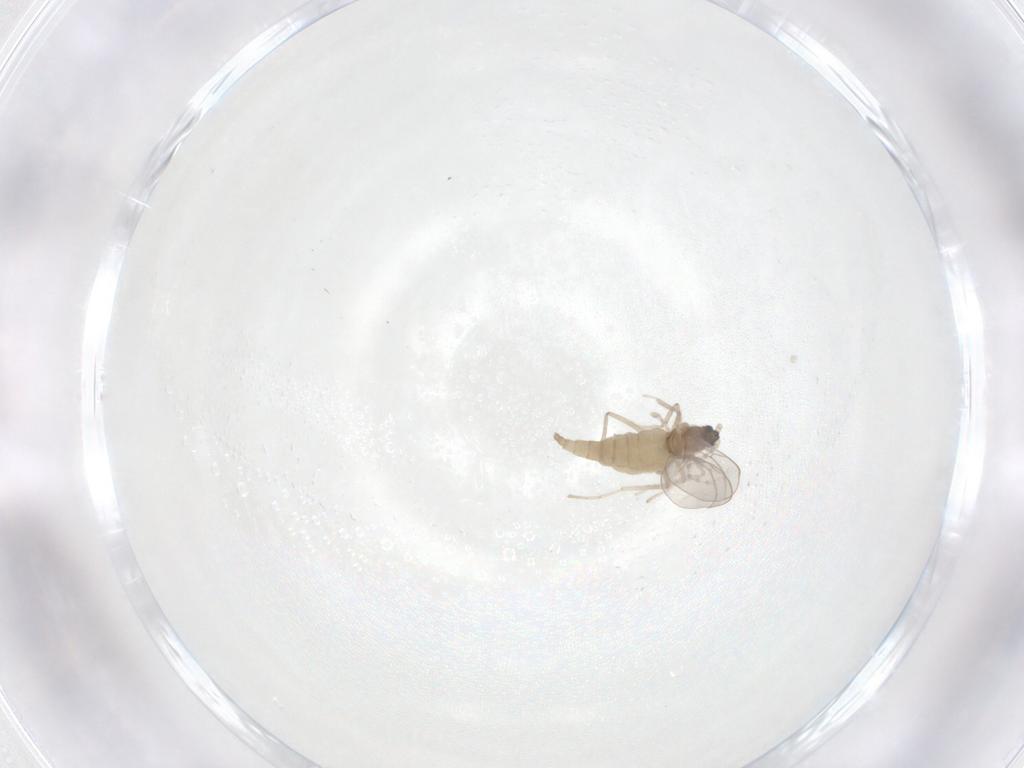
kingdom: Animalia
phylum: Arthropoda
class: Insecta
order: Diptera
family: Cecidomyiidae
